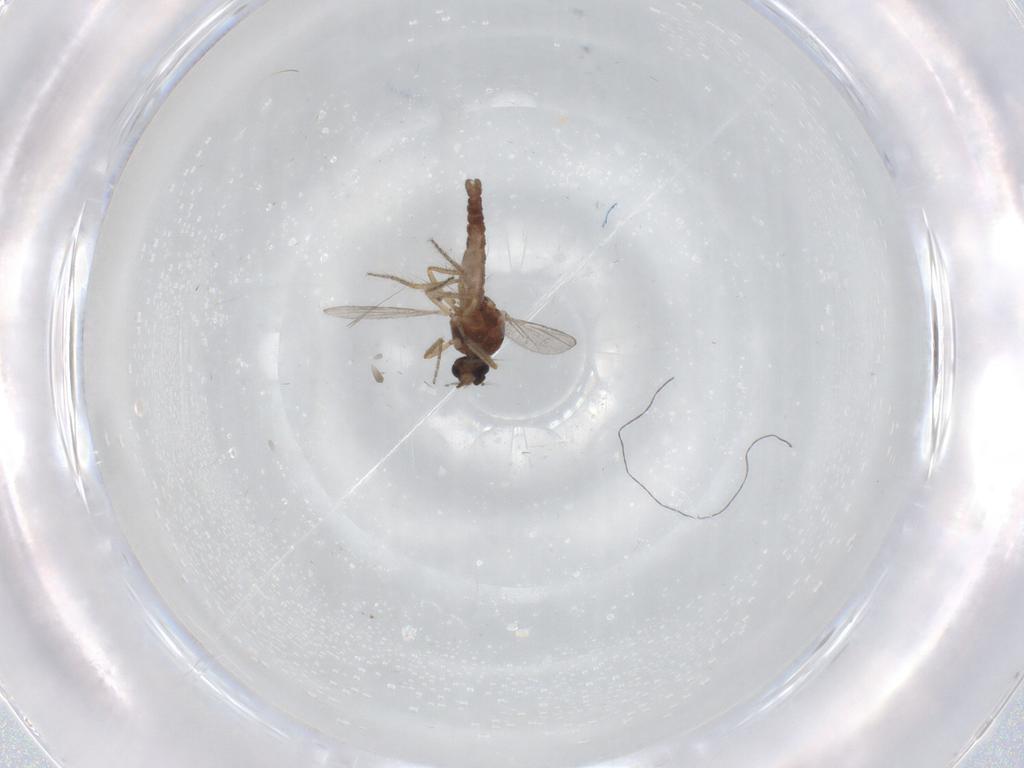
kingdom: Animalia
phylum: Arthropoda
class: Insecta
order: Diptera
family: Ceratopogonidae
